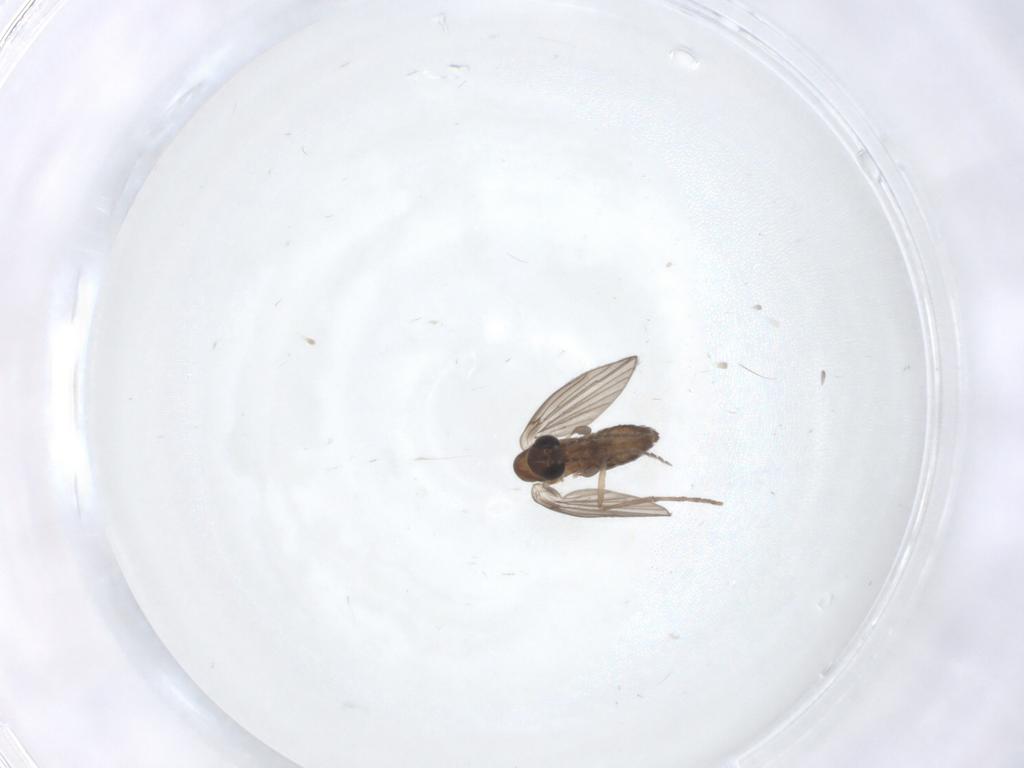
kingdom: Animalia
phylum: Arthropoda
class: Insecta
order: Diptera
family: Psychodidae
